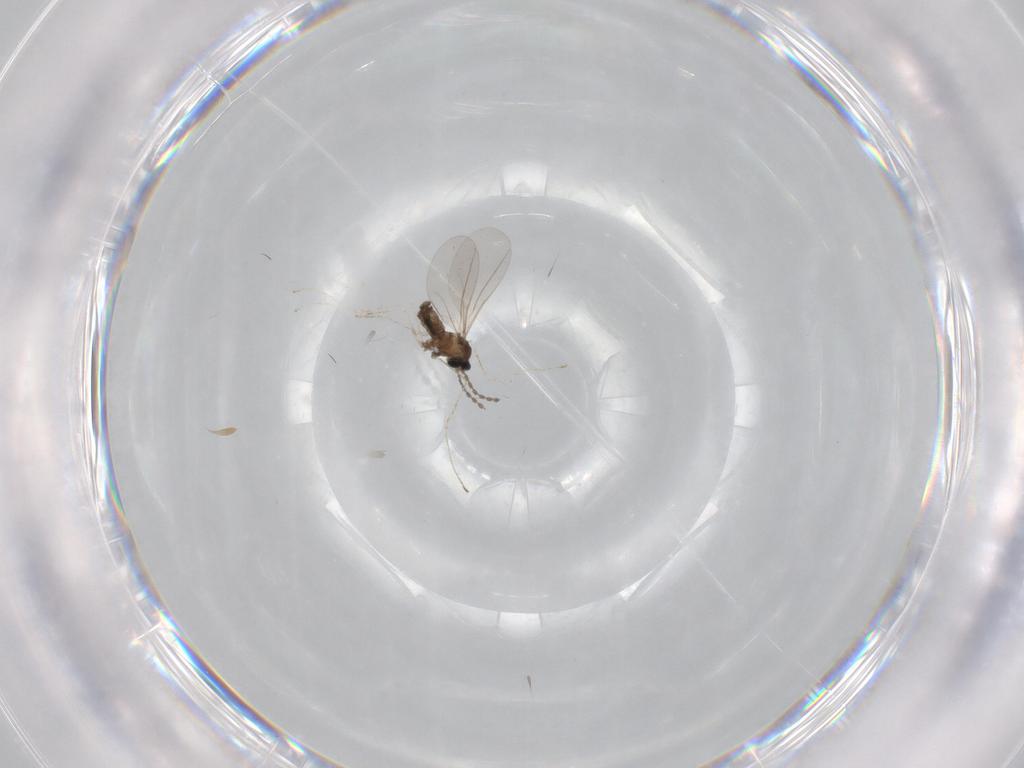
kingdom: Animalia
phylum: Arthropoda
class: Insecta
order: Diptera
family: Cecidomyiidae
